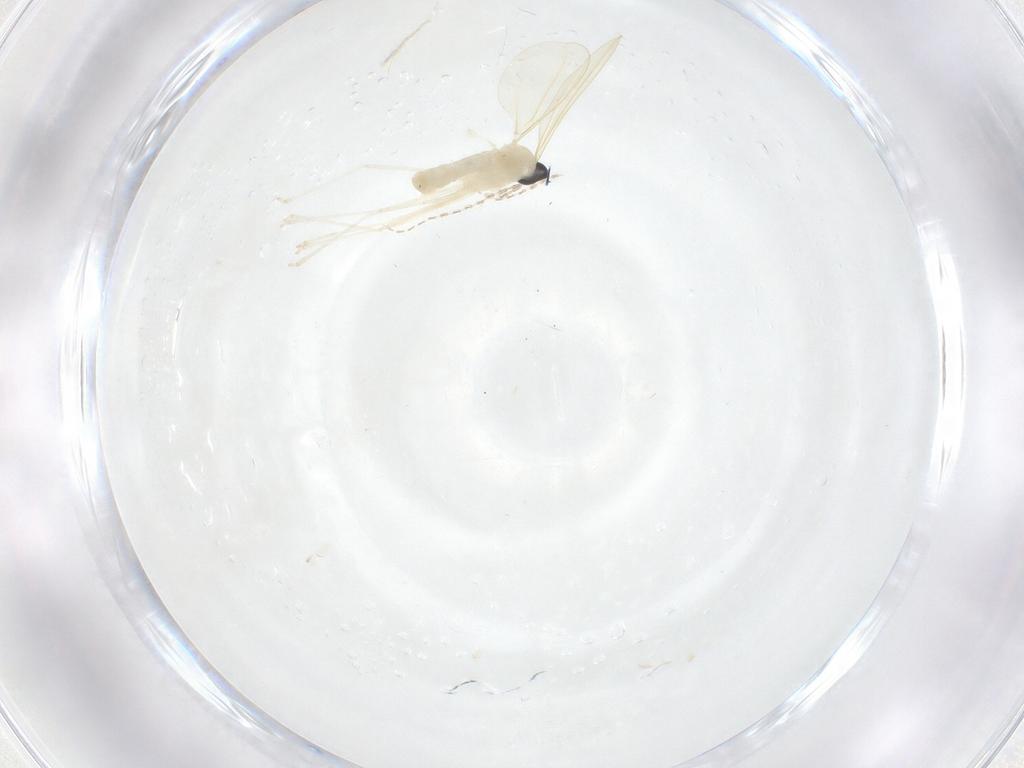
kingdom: Animalia
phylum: Arthropoda
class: Insecta
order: Diptera
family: Cecidomyiidae
